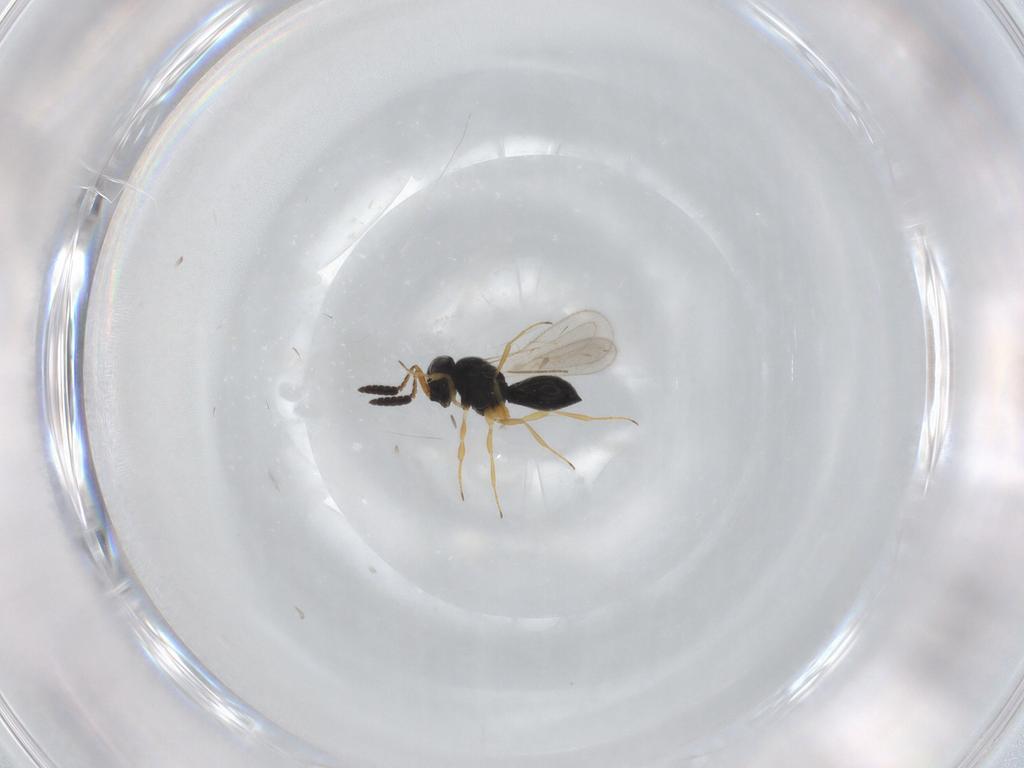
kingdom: Animalia
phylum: Arthropoda
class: Insecta
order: Hymenoptera
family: Scelionidae
